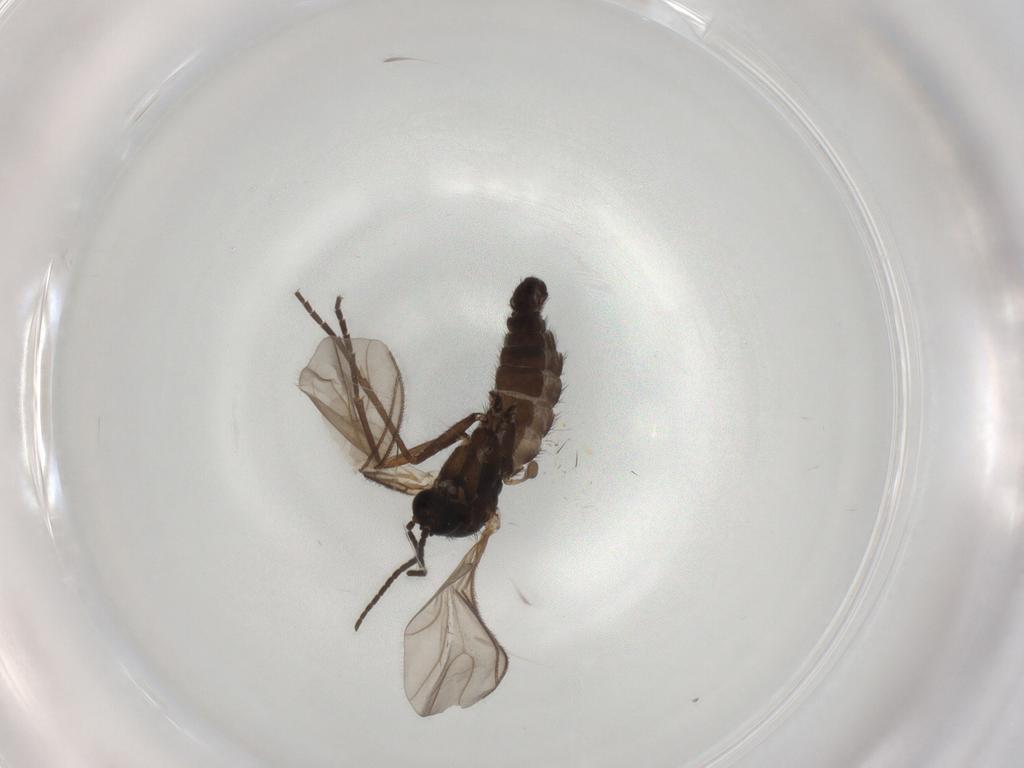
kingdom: Animalia
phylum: Arthropoda
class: Insecta
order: Diptera
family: Sciaridae
